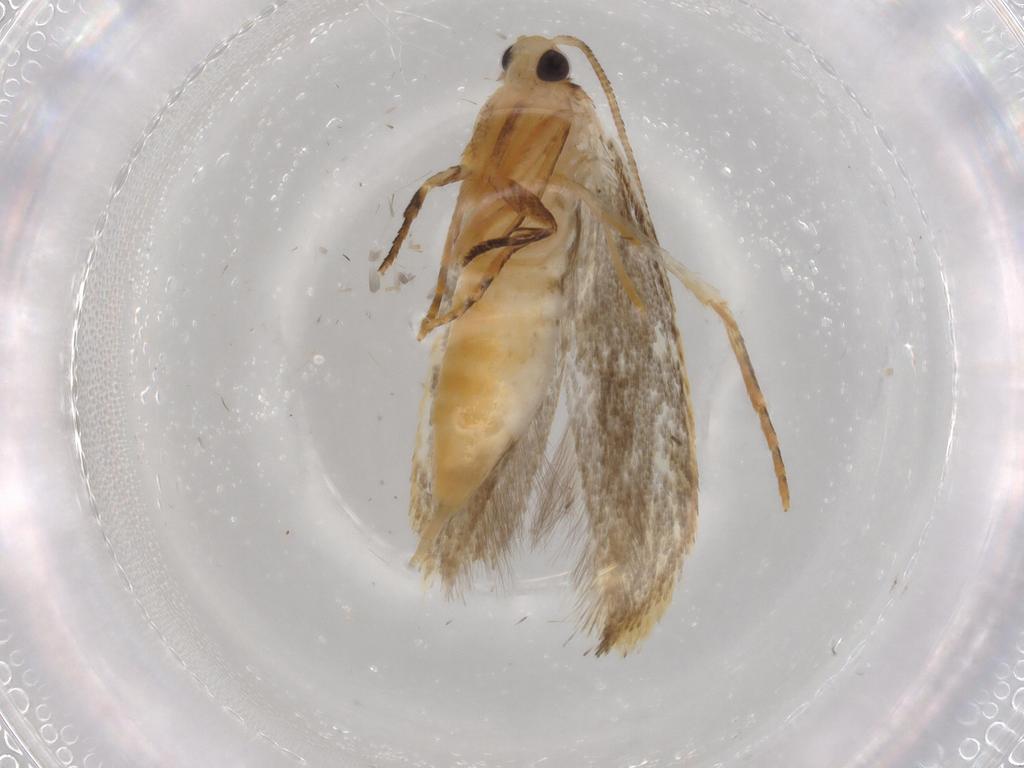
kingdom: Animalia
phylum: Arthropoda
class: Insecta
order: Lepidoptera
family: Tineidae
